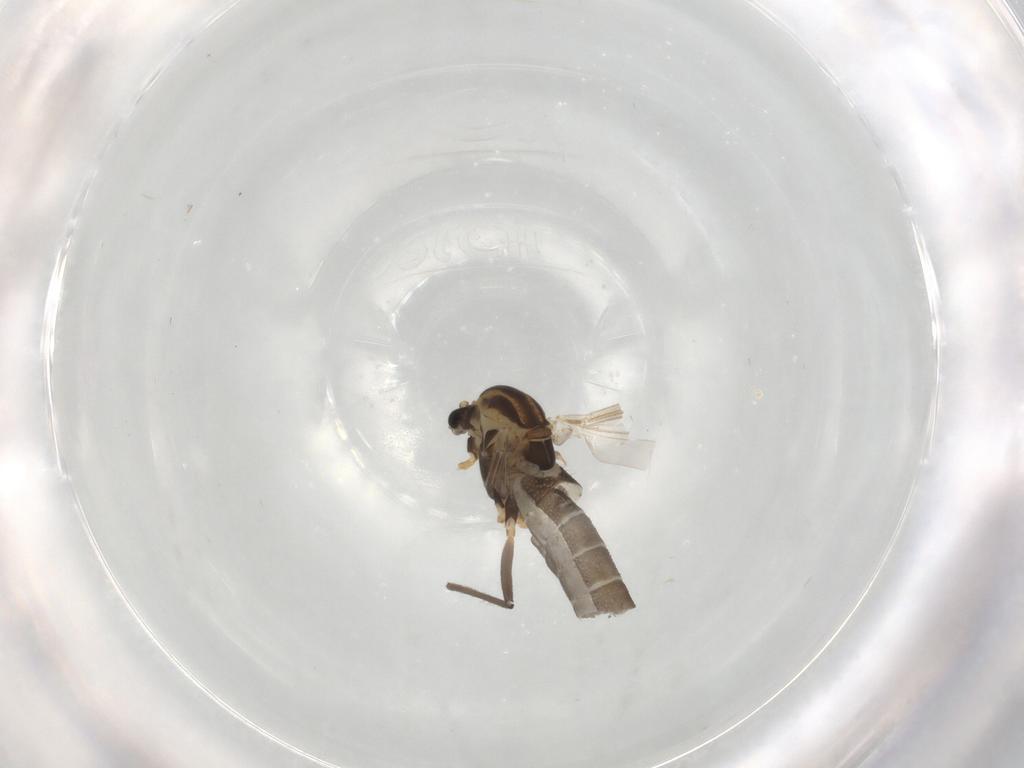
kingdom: Animalia
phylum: Arthropoda
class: Insecta
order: Diptera
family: Chironomidae
